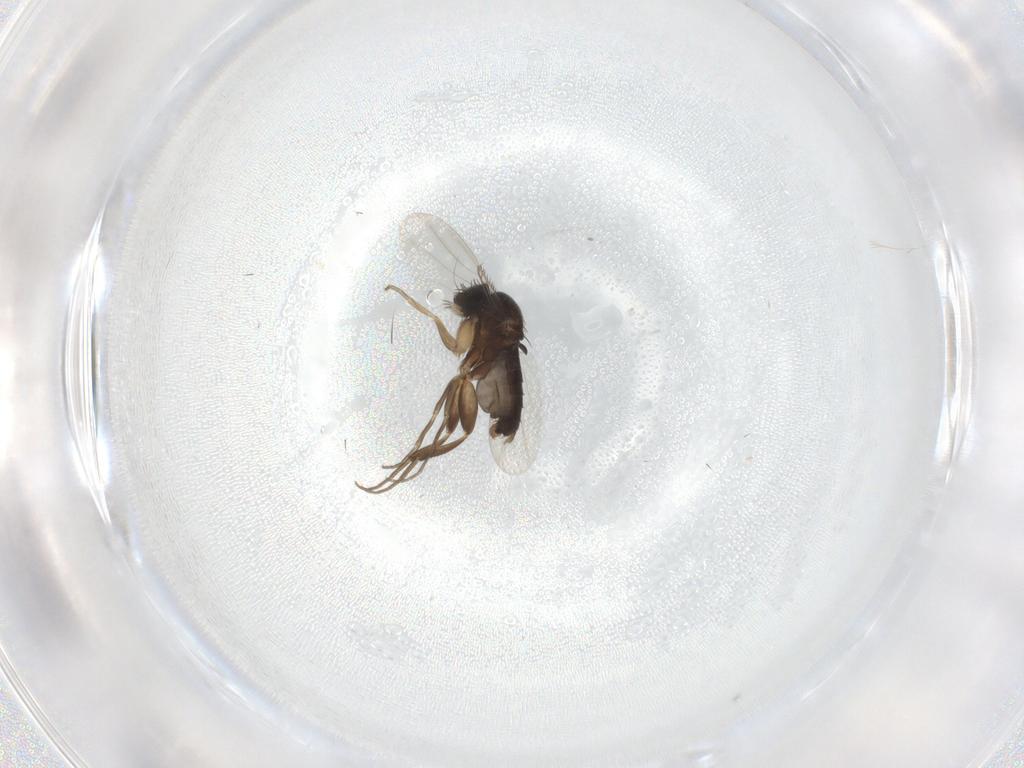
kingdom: Animalia
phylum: Arthropoda
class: Insecta
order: Diptera
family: Phoridae
